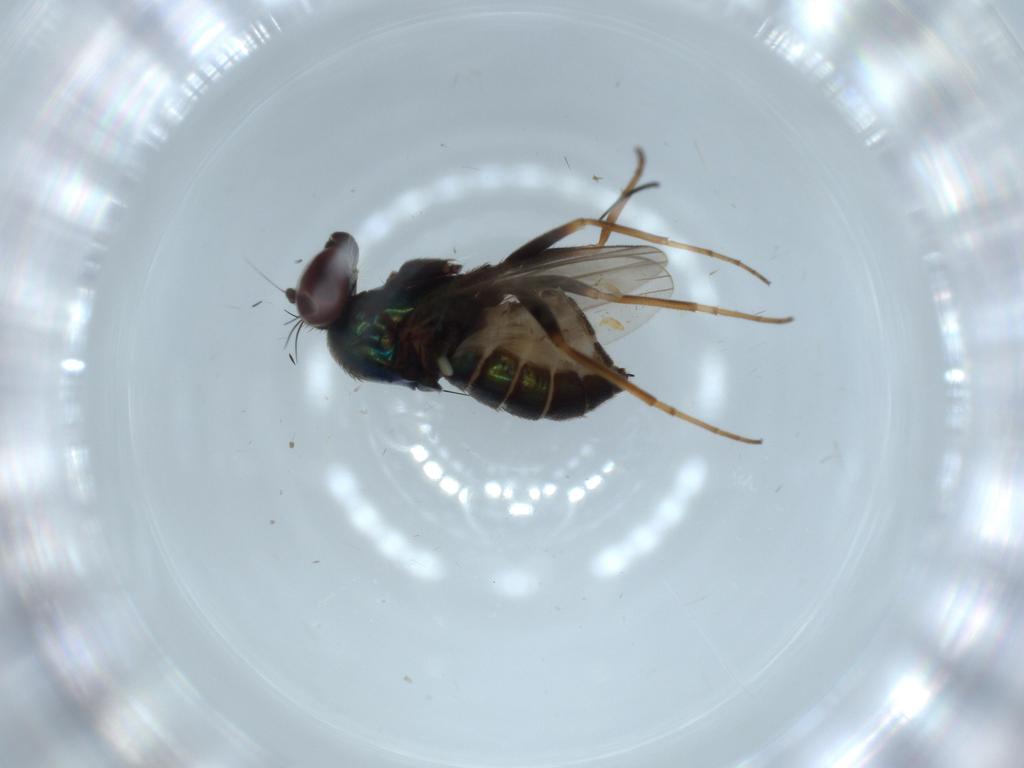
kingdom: Animalia
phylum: Arthropoda
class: Insecta
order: Diptera
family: Dolichopodidae
